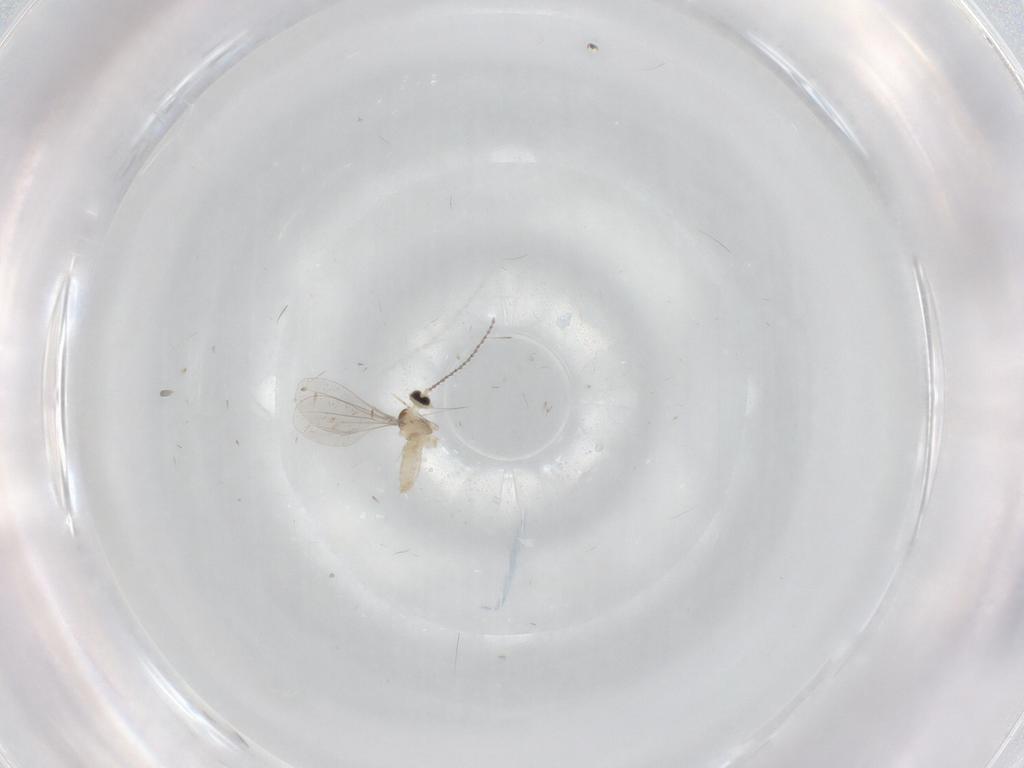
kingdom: Animalia
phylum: Arthropoda
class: Insecta
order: Diptera
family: Cecidomyiidae
